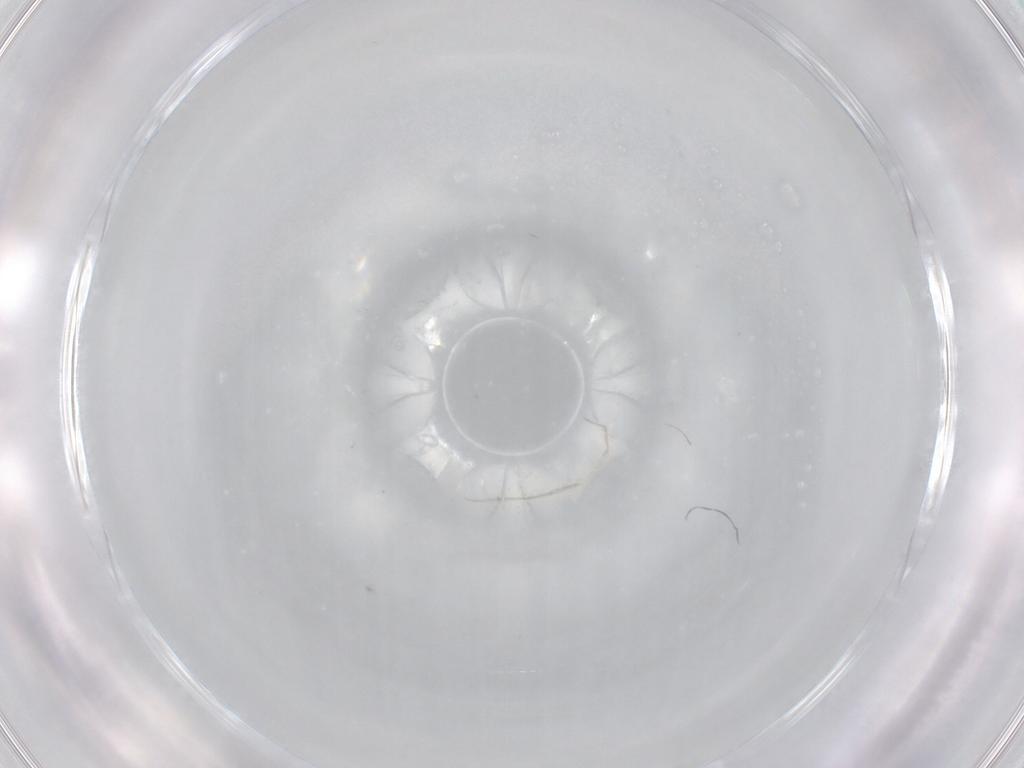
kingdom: Animalia
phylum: Arthropoda
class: Insecta
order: Diptera
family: Sciaridae
